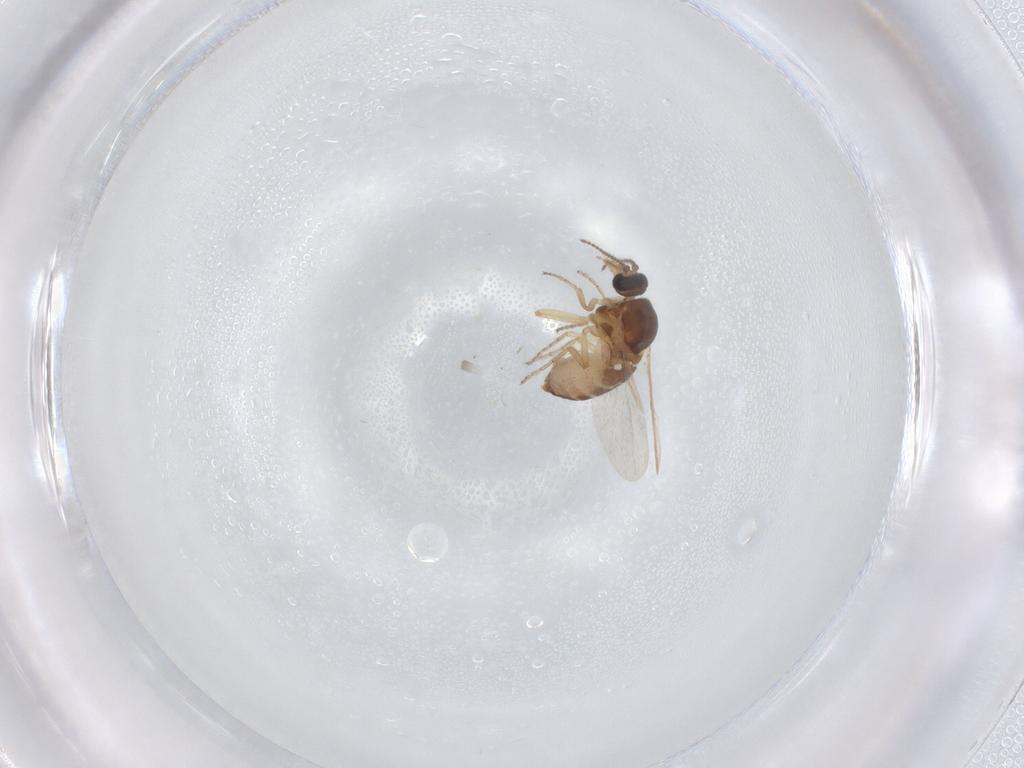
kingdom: Animalia
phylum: Arthropoda
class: Insecta
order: Diptera
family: Ceratopogonidae
